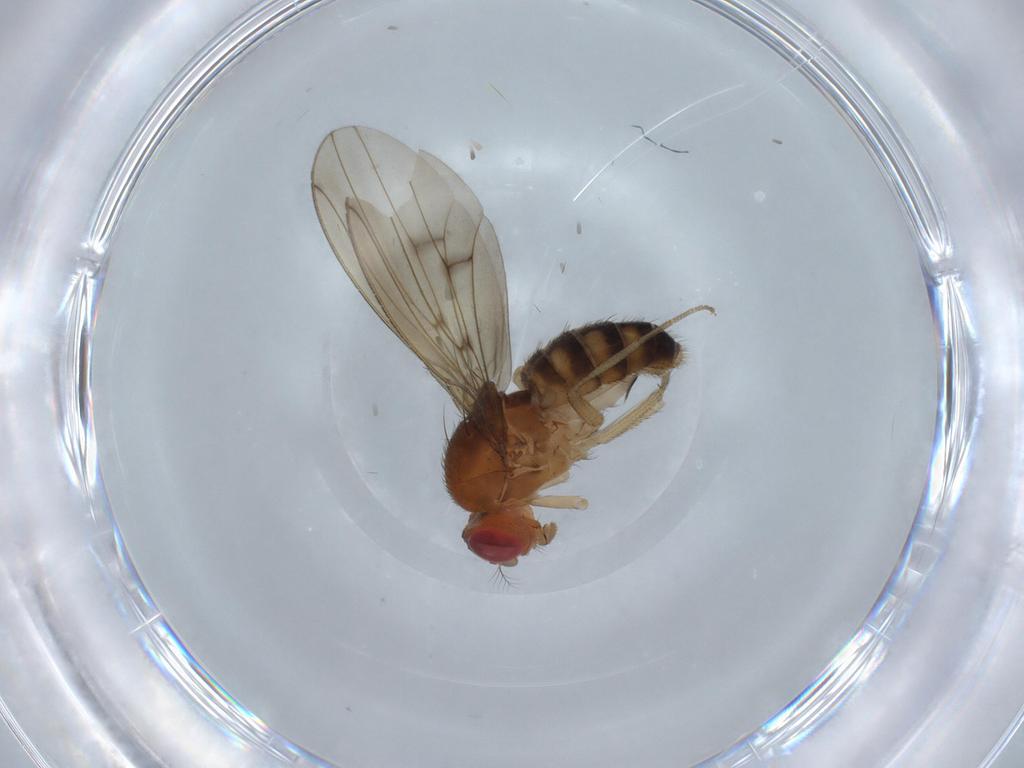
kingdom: Animalia
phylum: Arthropoda
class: Insecta
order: Diptera
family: Drosophilidae
